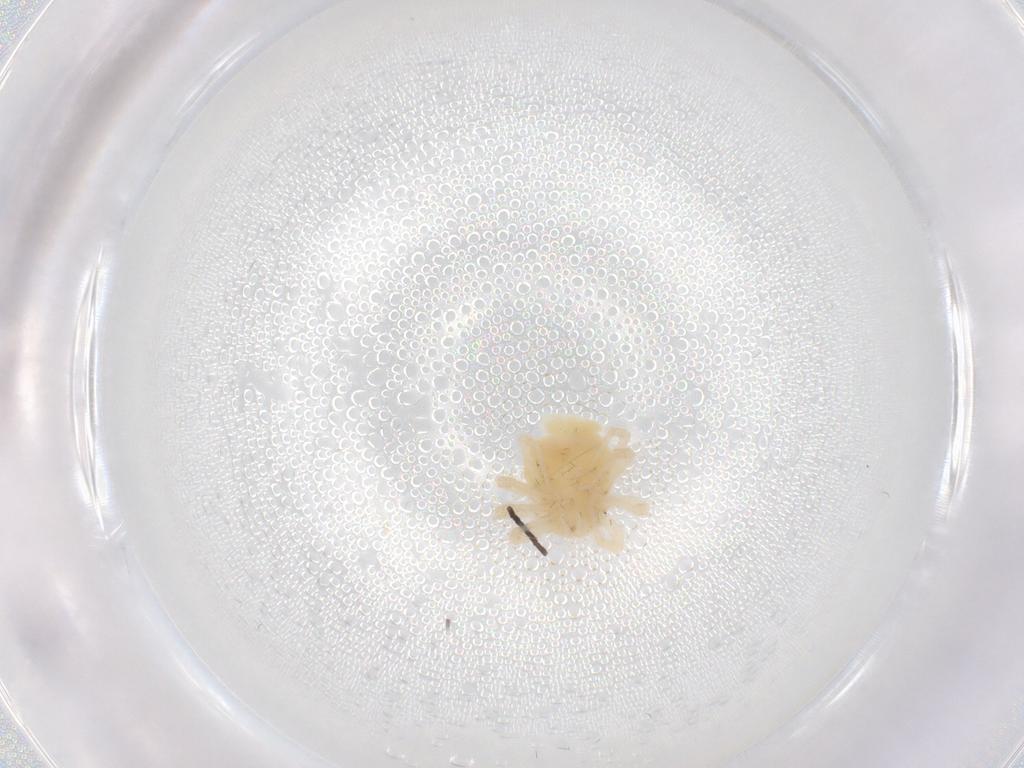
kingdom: Animalia
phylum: Arthropoda
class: Arachnida
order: Trombidiformes
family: Anystidae
